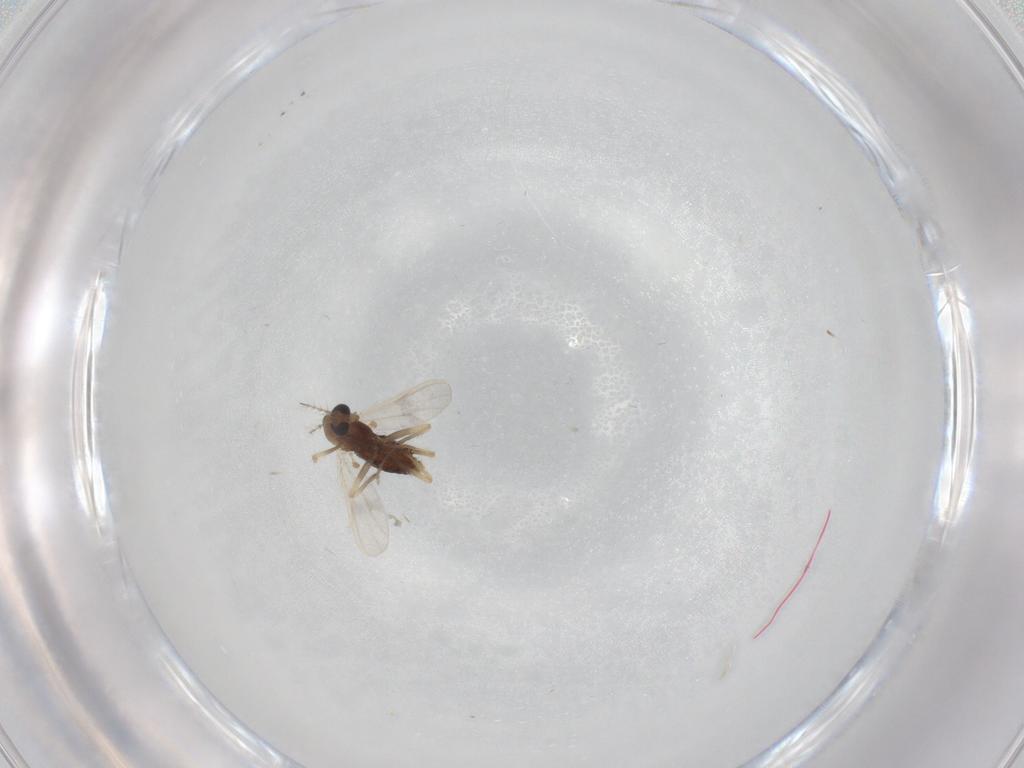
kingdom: Animalia
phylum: Arthropoda
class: Insecta
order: Diptera
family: Chironomidae
